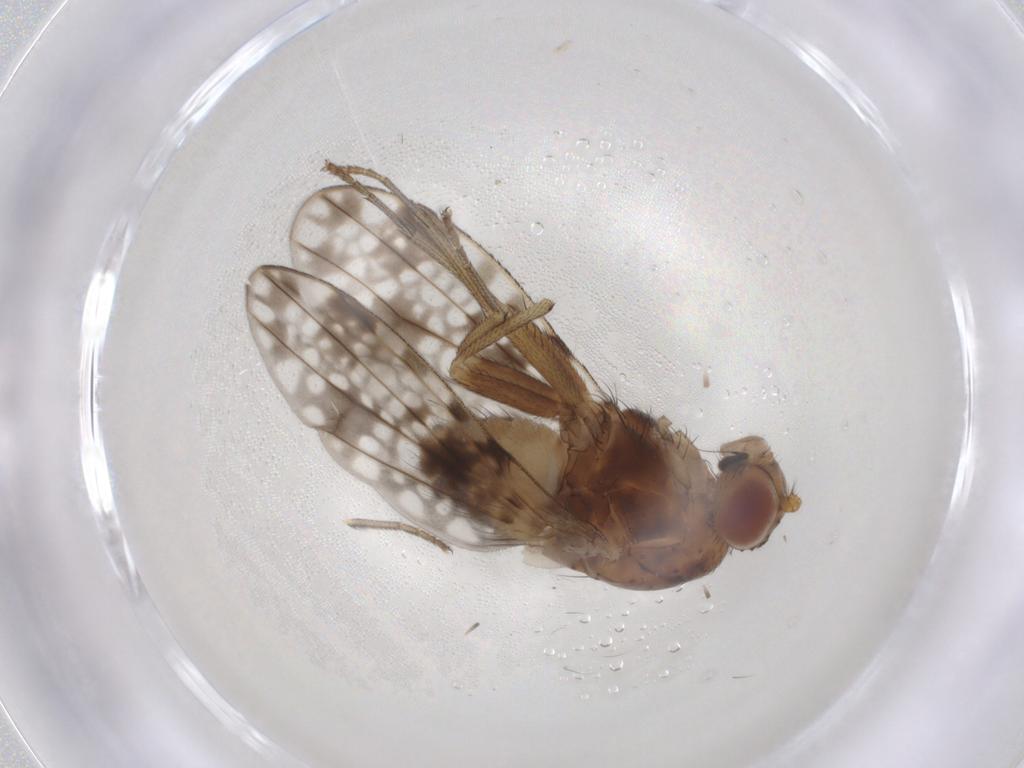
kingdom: Animalia
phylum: Arthropoda
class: Insecta
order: Diptera
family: Lauxaniidae
